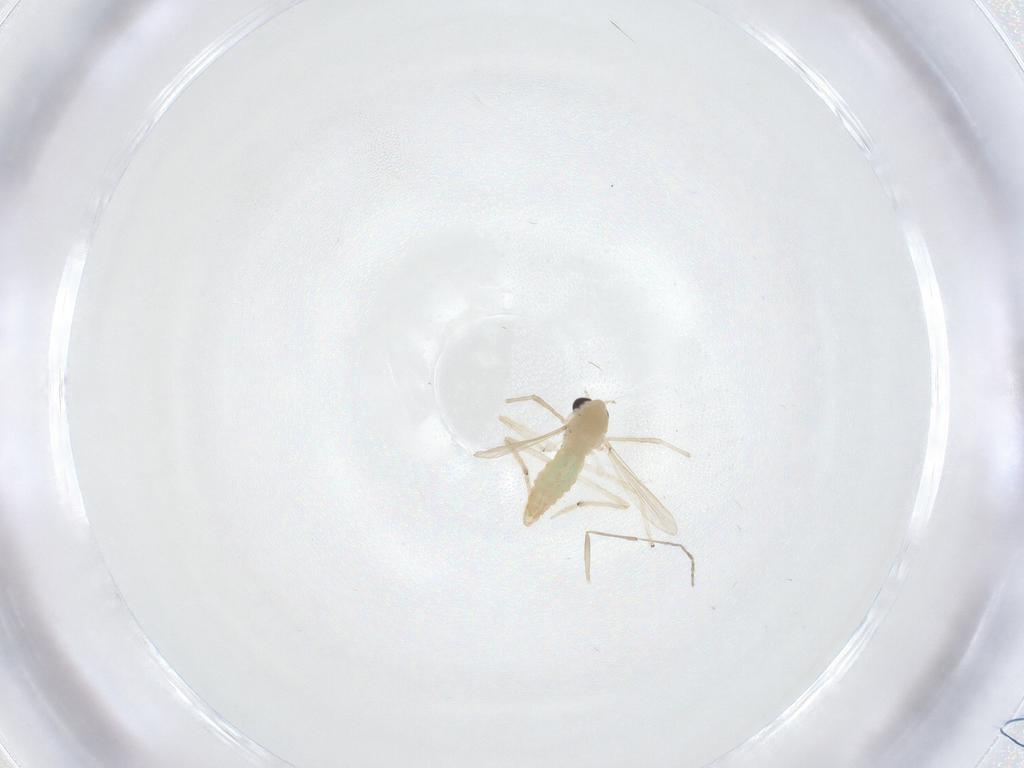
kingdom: Animalia
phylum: Arthropoda
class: Insecta
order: Diptera
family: Chironomidae
